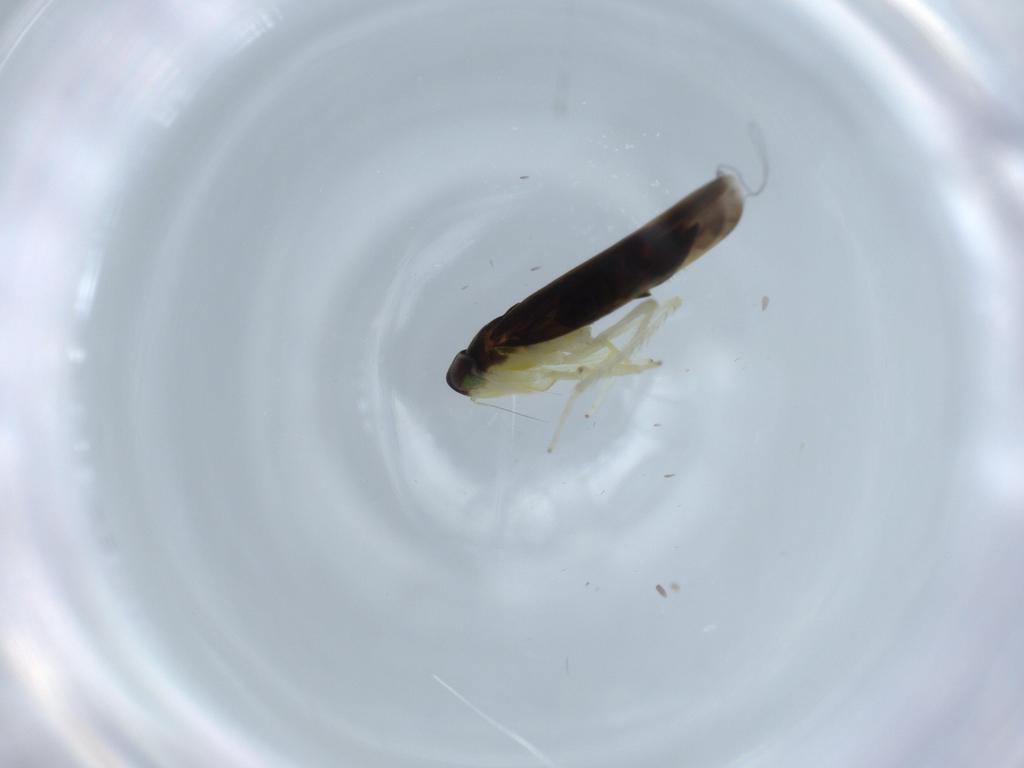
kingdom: Animalia
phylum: Arthropoda
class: Insecta
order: Hemiptera
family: Cicadellidae
